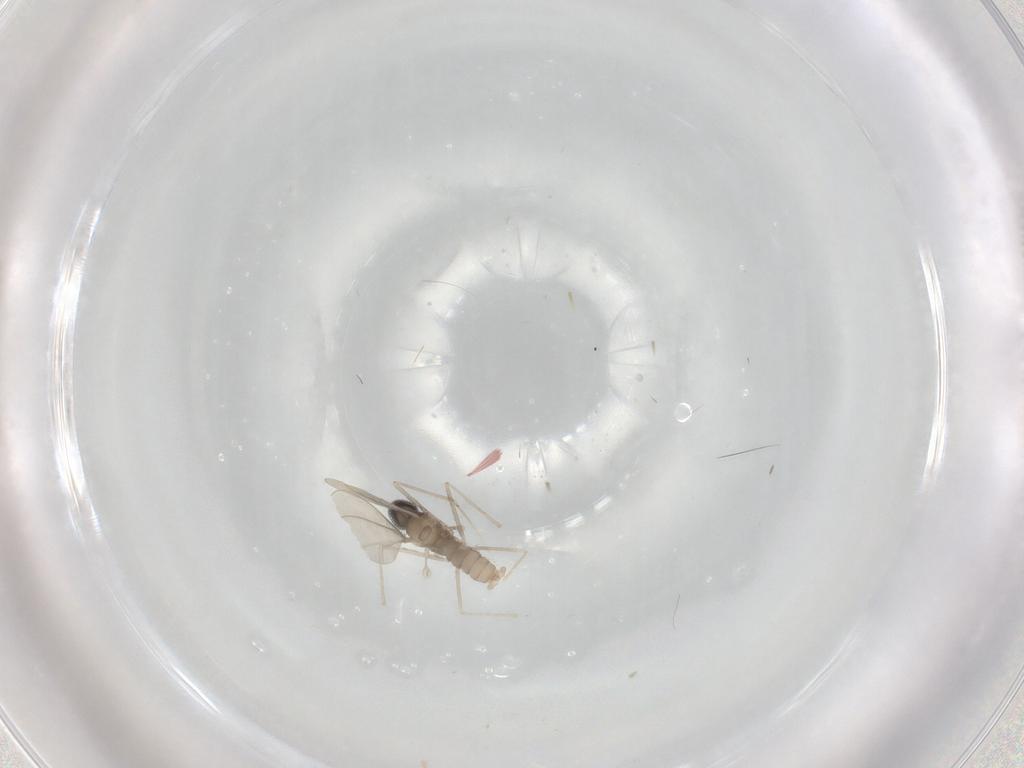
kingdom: Animalia
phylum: Arthropoda
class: Insecta
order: Diptera
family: Cecidomyiidae
